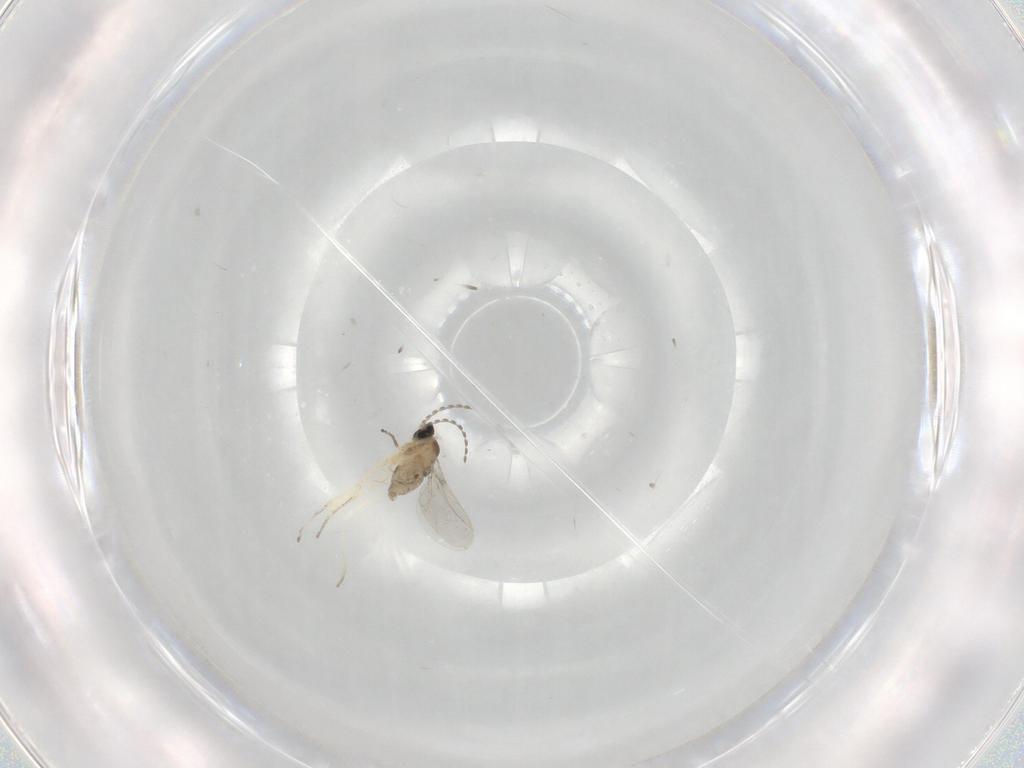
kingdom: Animalia
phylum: Arthropoda
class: Insecta
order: Diptera
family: Cecidomyiidae
